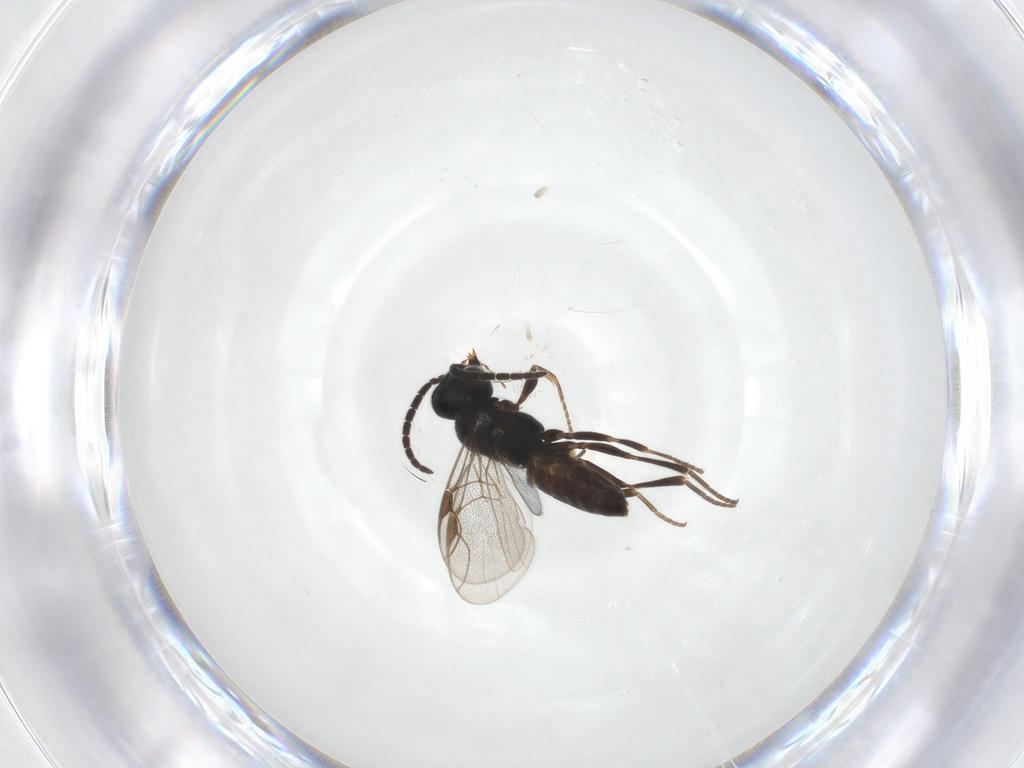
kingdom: Animalia
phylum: Arthropoda
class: Insecta
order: Hymenoptera
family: Dryinidae
